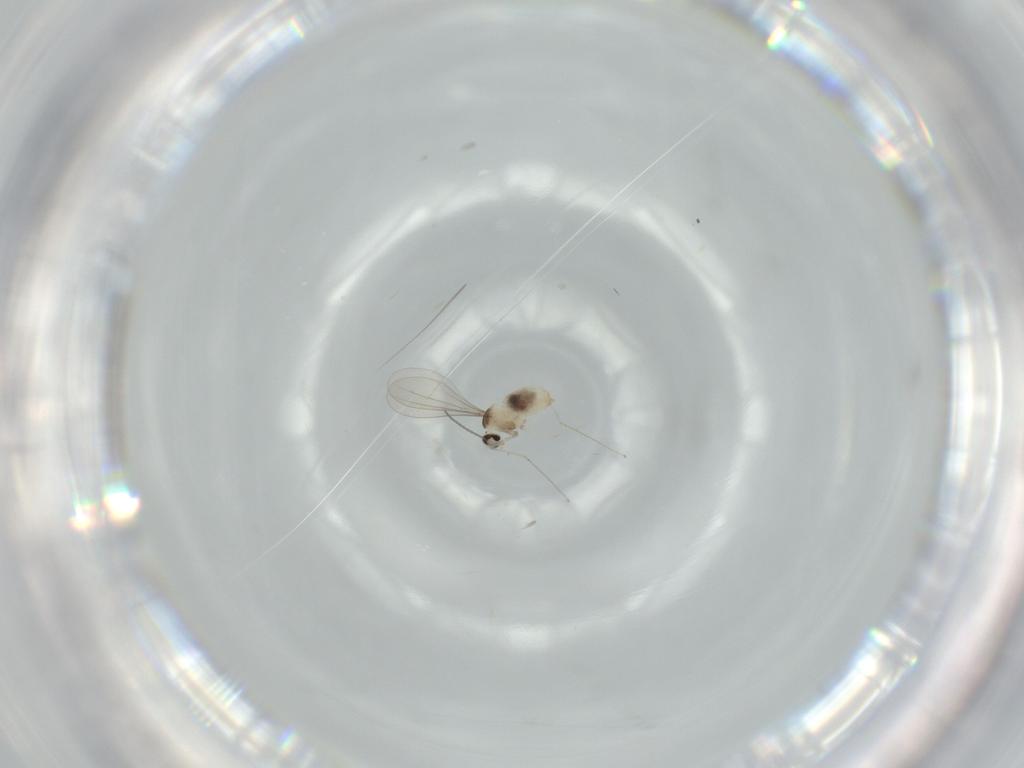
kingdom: Animalia
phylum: Arthropoda
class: Insecta
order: Diptera
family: Cecidomyiidae
